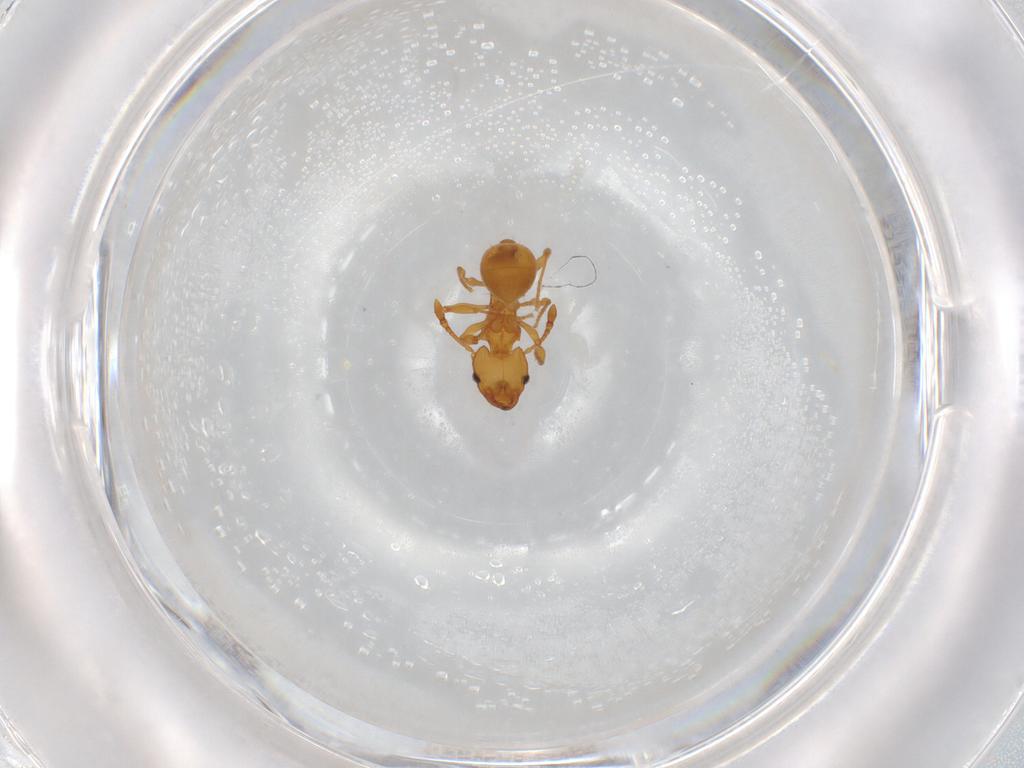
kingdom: Animalia
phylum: Arthropoda
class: Insecta
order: Hymenoptera
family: Formicidae
